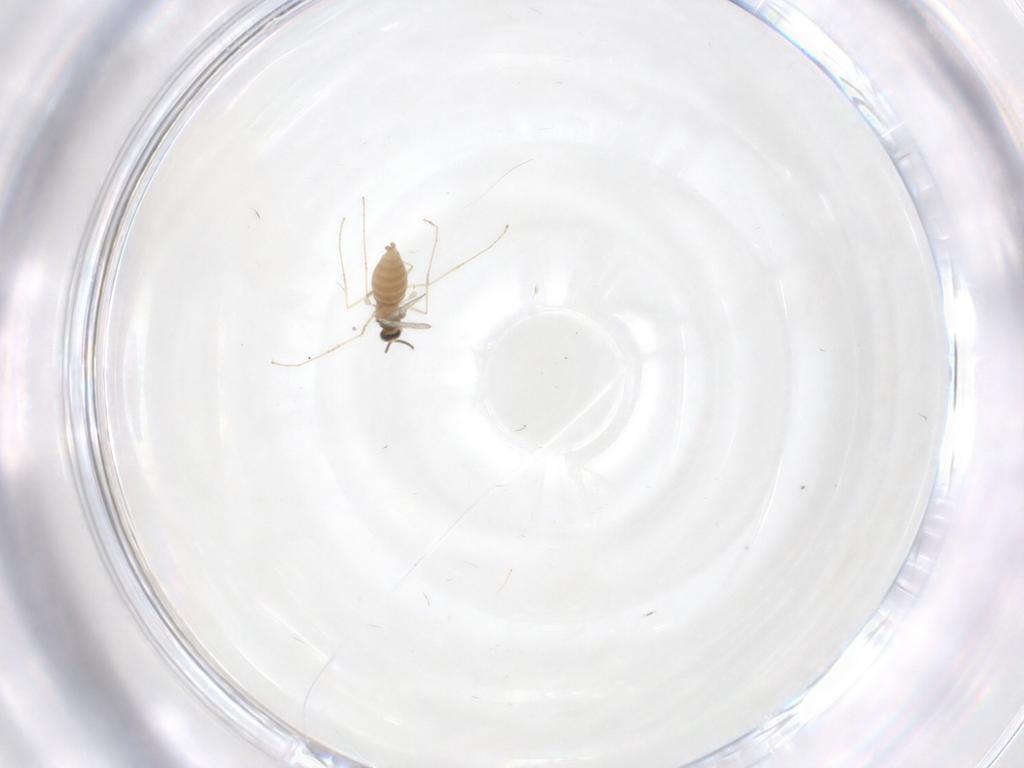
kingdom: Animalia
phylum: Arthropoda
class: Insecta
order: Diptera
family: Cecidomyiidae
